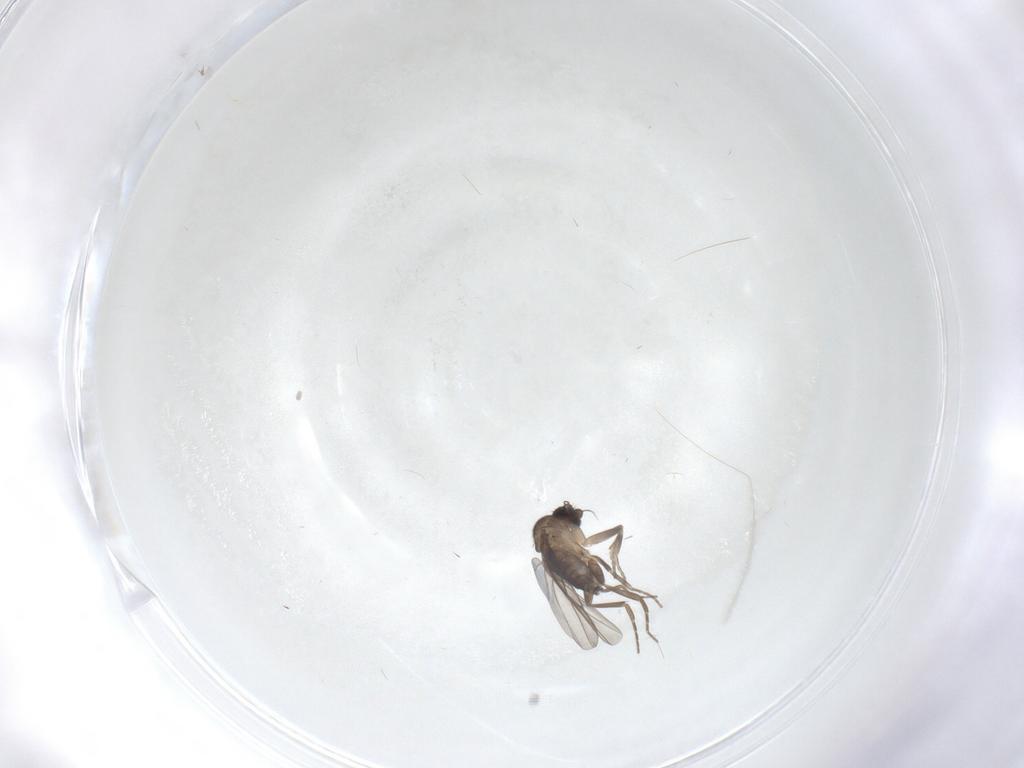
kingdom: Animalia
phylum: Arthropoda
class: Insecta
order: Diptera
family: Phoridae
